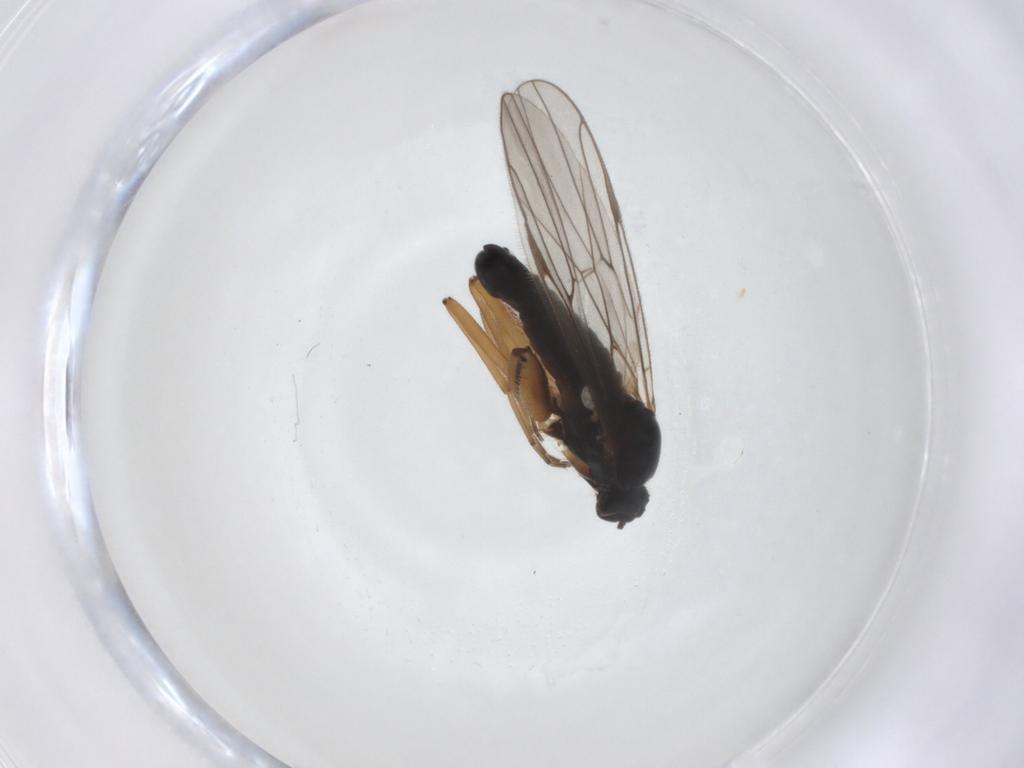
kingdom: Animalia
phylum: Arthropoda
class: Insecta
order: Diptera
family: Hybotidae
